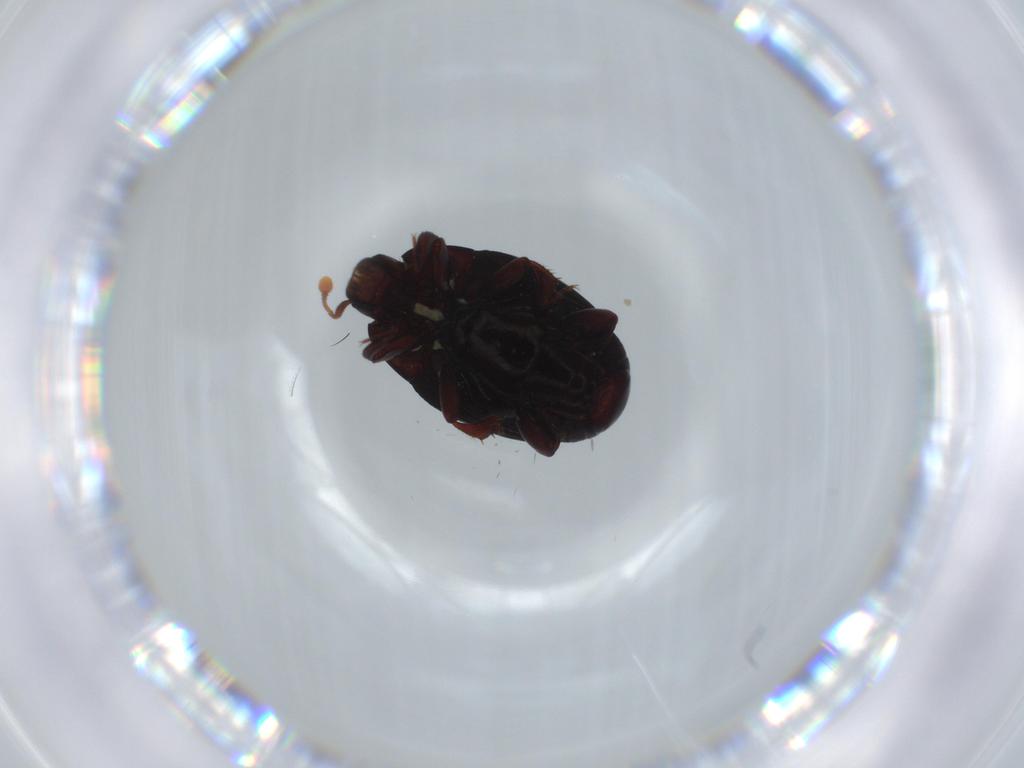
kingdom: Animalia
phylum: Arthropoda
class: Insecta
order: Coleoptera
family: Histeridae
